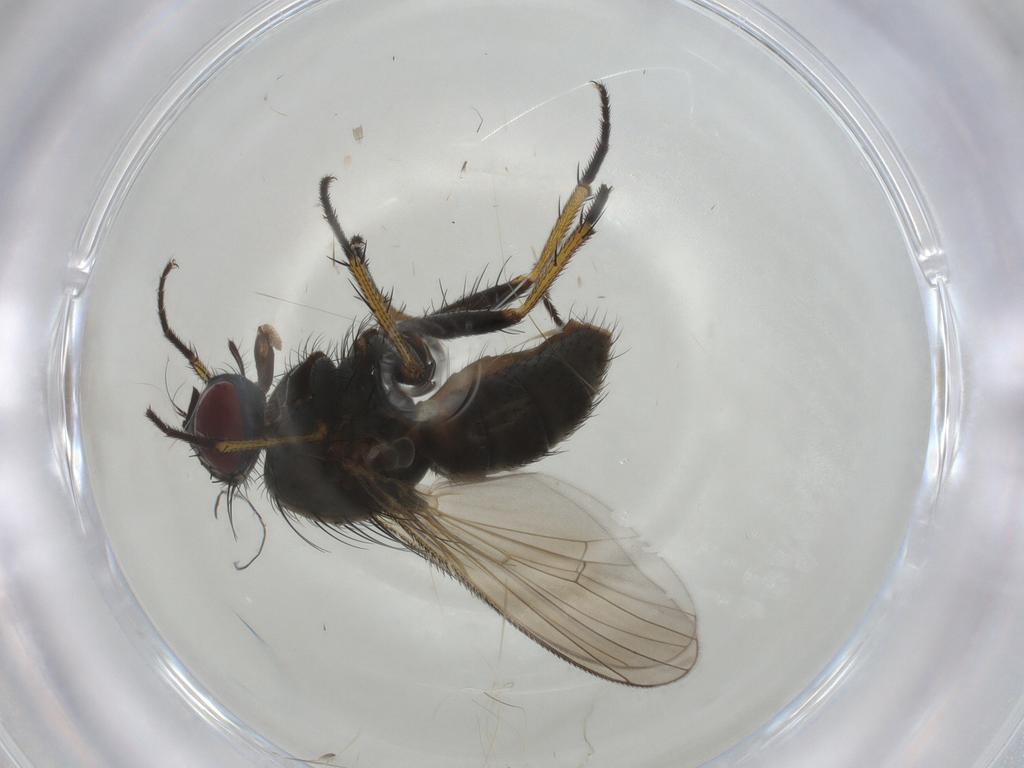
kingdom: Animalia
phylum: Arthropoda
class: Insecta
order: Diptera
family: Muscidae
